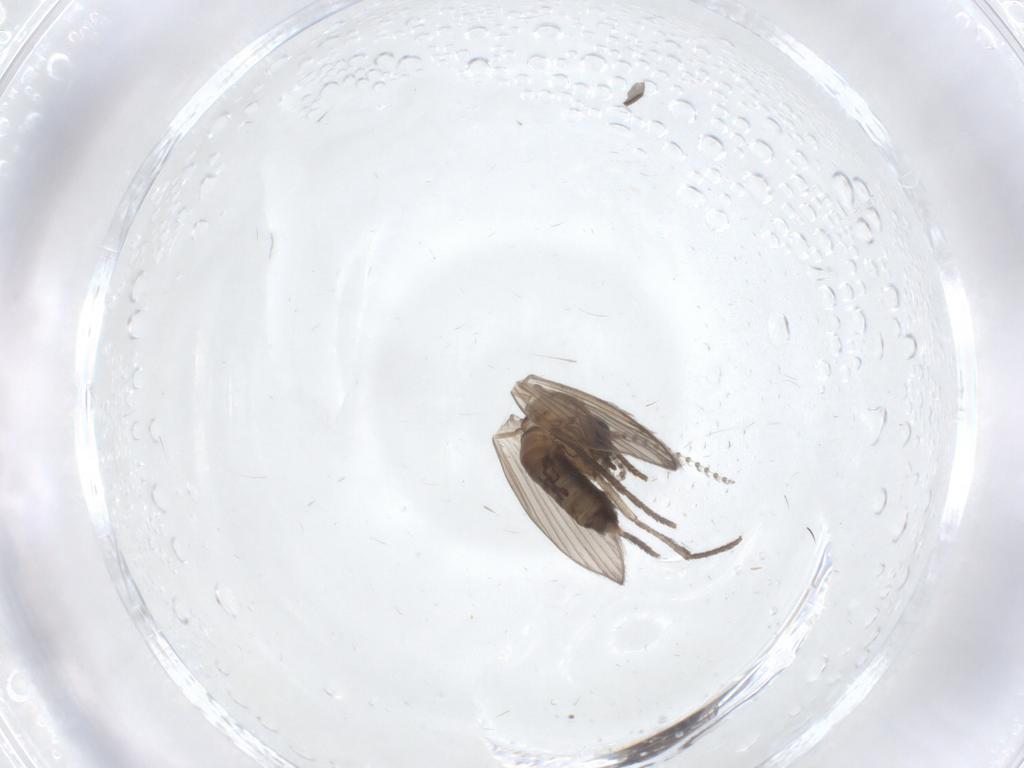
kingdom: Animalia
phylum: Arthropoda
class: Insecta
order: Diptera
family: Psychodidae
